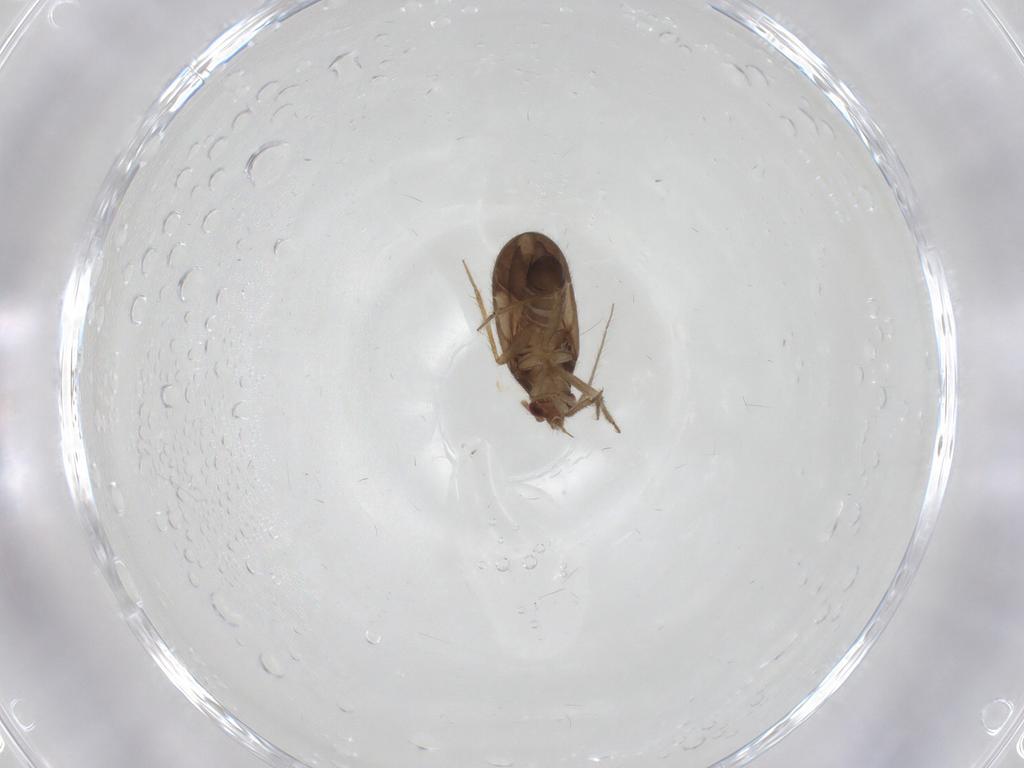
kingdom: Animalia
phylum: Arthropoda
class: Insecta
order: Hemiptera
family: Ceratocombidae
